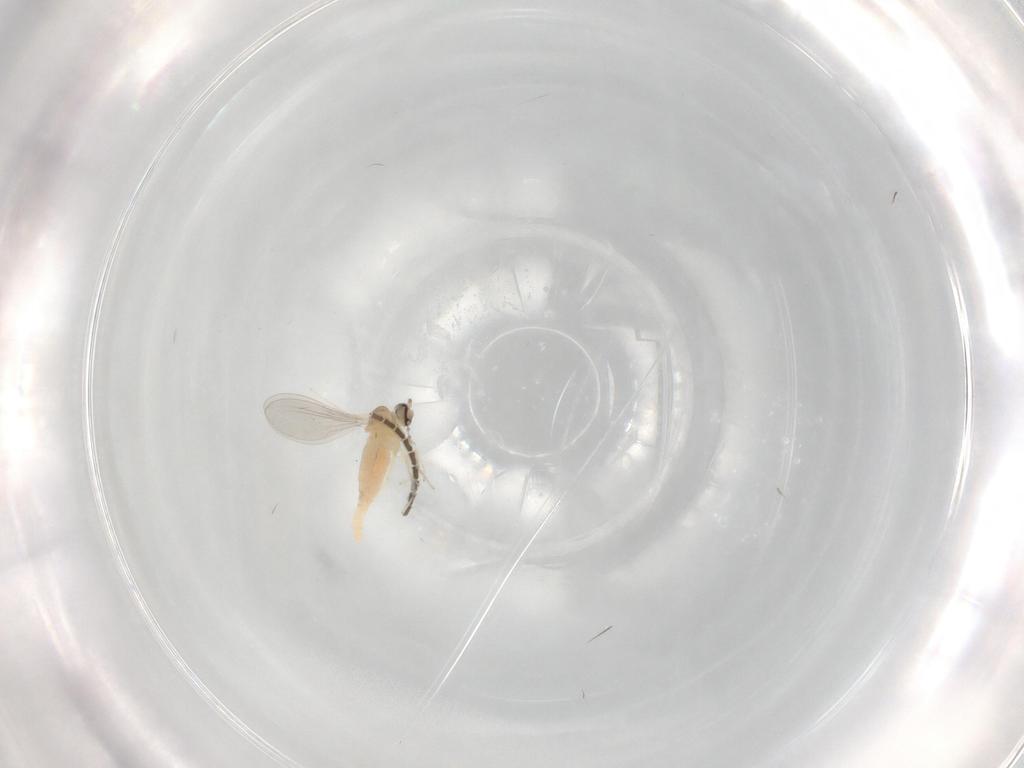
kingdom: Animalia
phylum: Arthropoda
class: Insecta
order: Diptera
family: Cecidomyiidae
